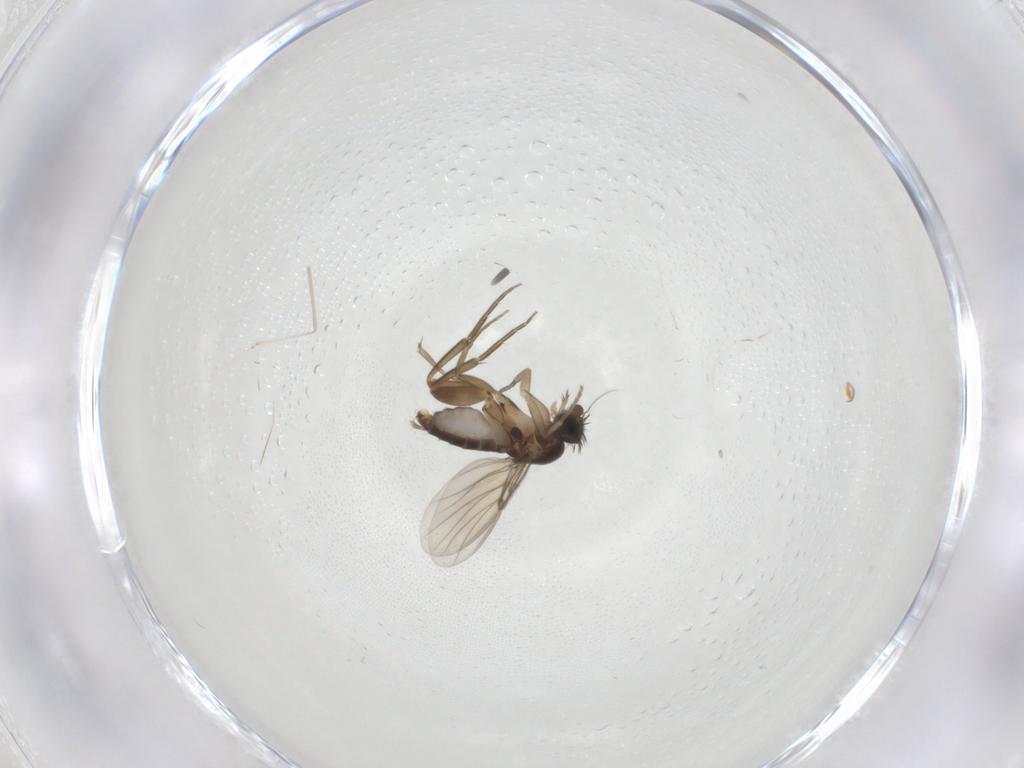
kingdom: Animalia
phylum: Arthropoda
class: Insecta
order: Diptera
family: Phoridae
